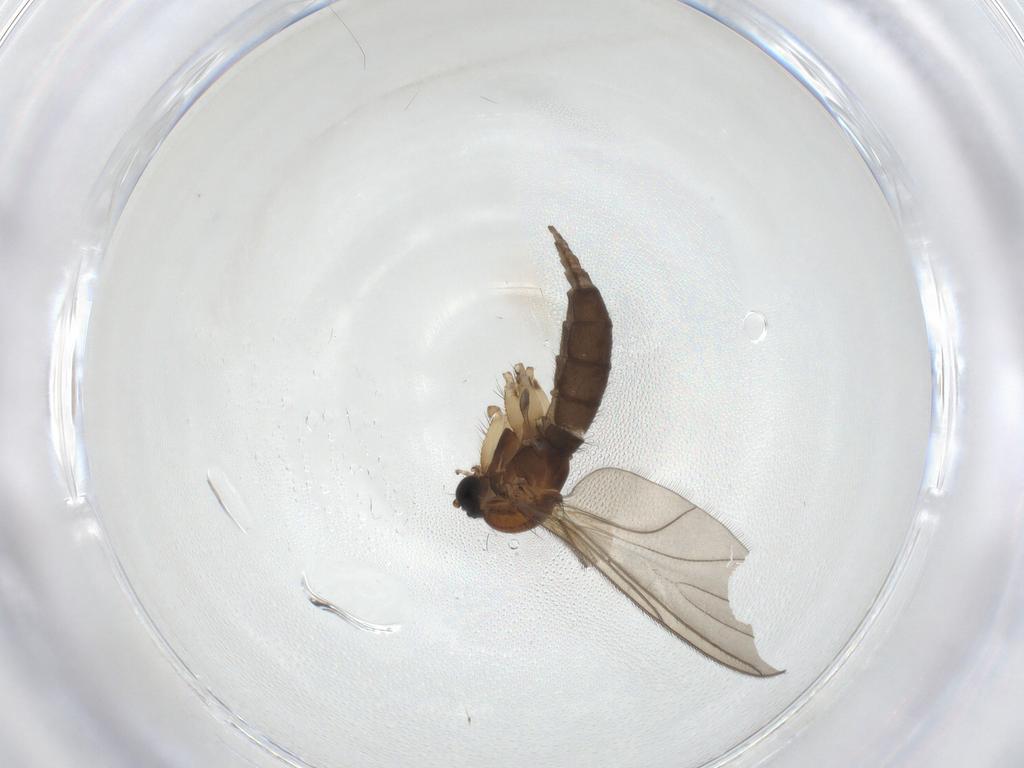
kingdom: Animalia
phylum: Arthropoda
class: Insecta
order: Diptera
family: Sciaridae
